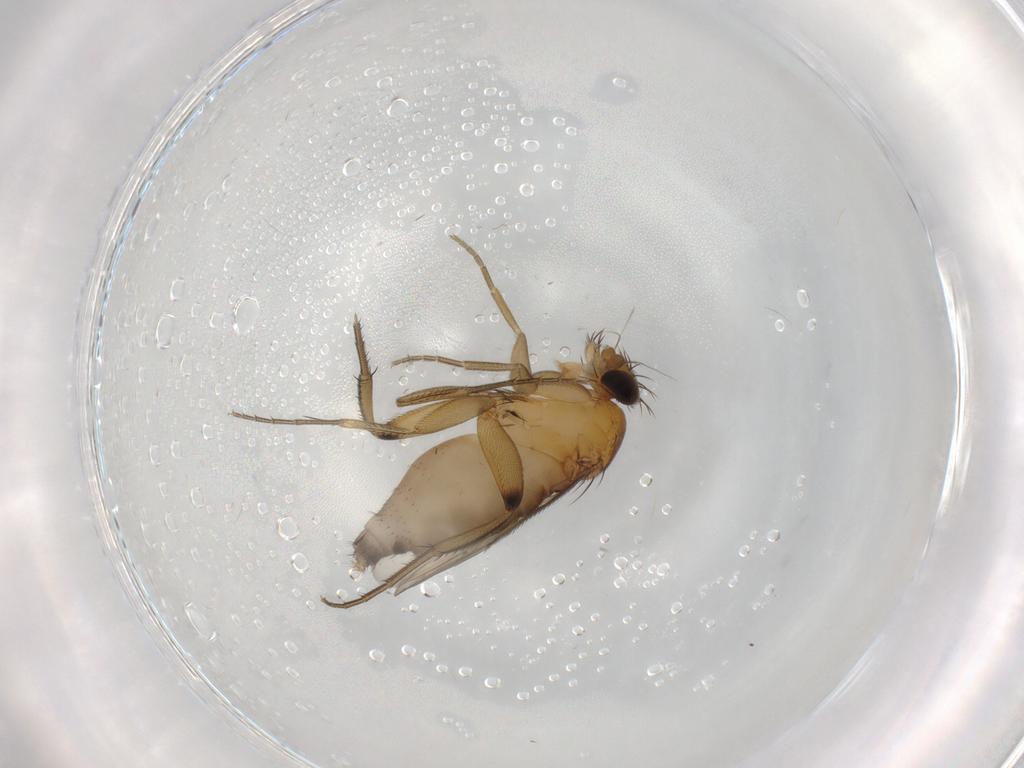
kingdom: Animalia
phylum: Arthropoda
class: Insecta
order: Diptera
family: Phoridae
